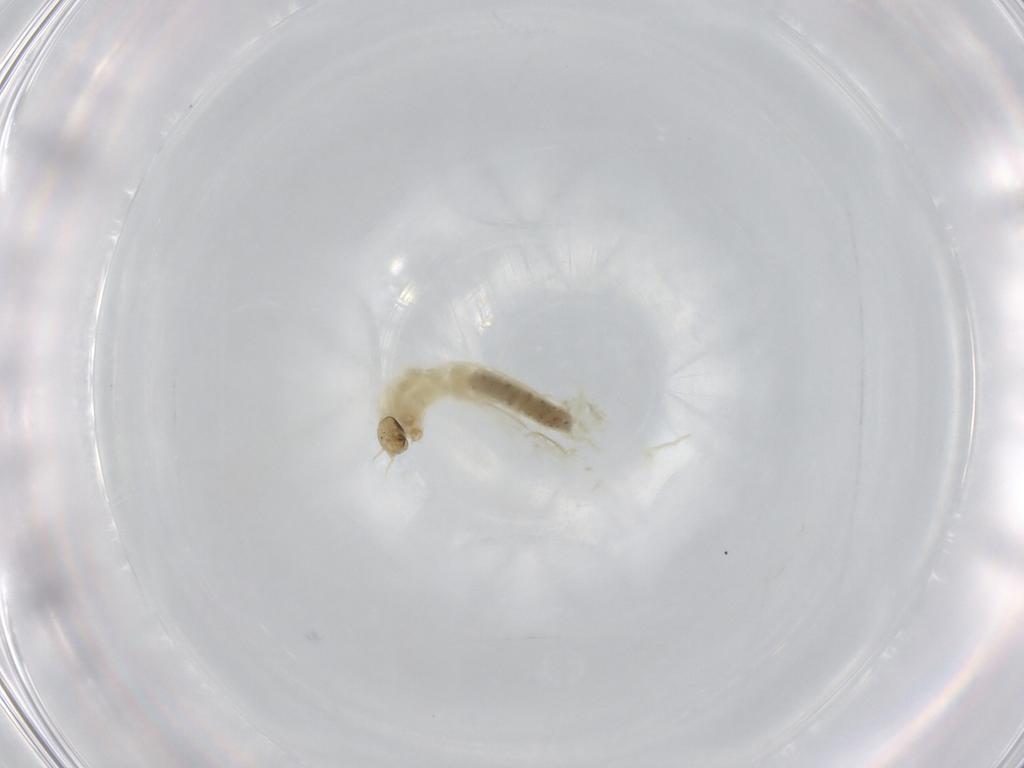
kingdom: Animalia
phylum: Arthropoda
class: Insecta
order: Diptera
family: Chironomidae
